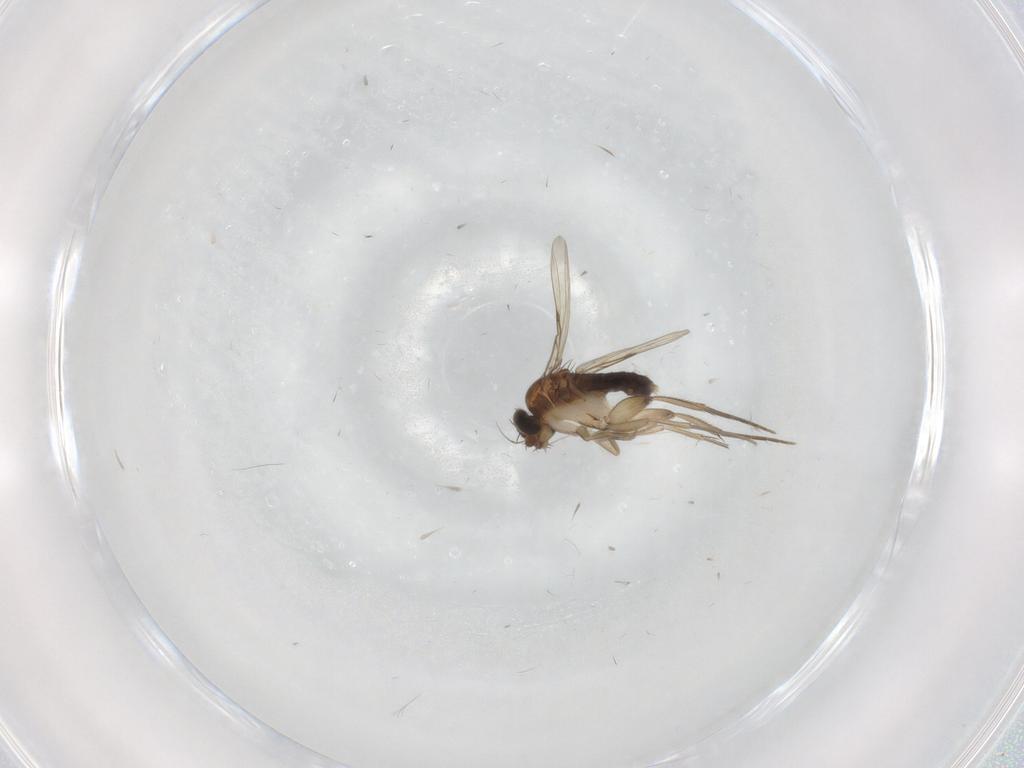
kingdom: Animalia
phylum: Arthropoda
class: Insecta
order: Diptera
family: Phoridae
